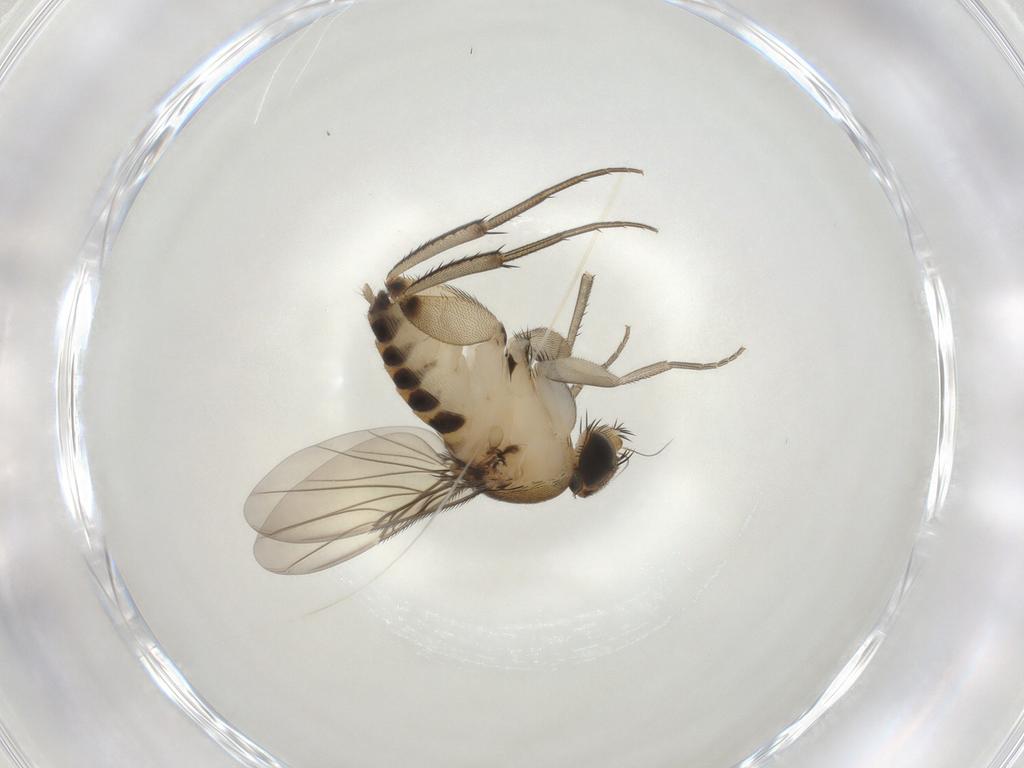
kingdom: Animalia
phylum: Arthropoda
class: Insecta
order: Diptera
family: Phoridae
